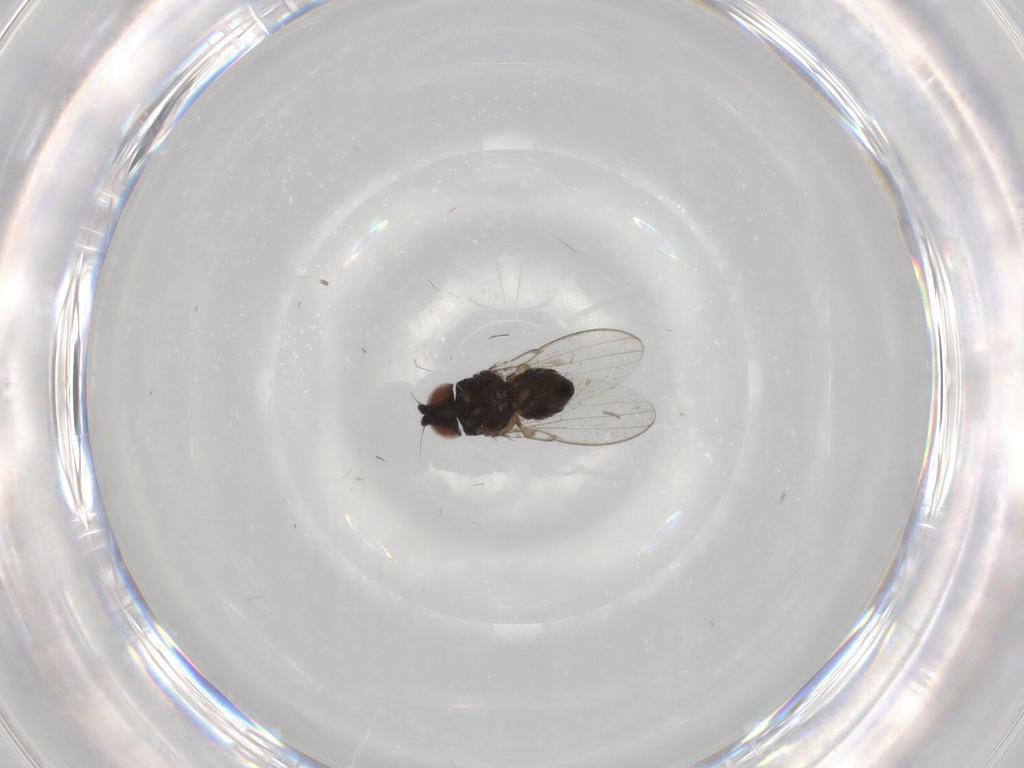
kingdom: Animalia
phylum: Arthropoda
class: Insecta
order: Diptera
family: Milichiidae
